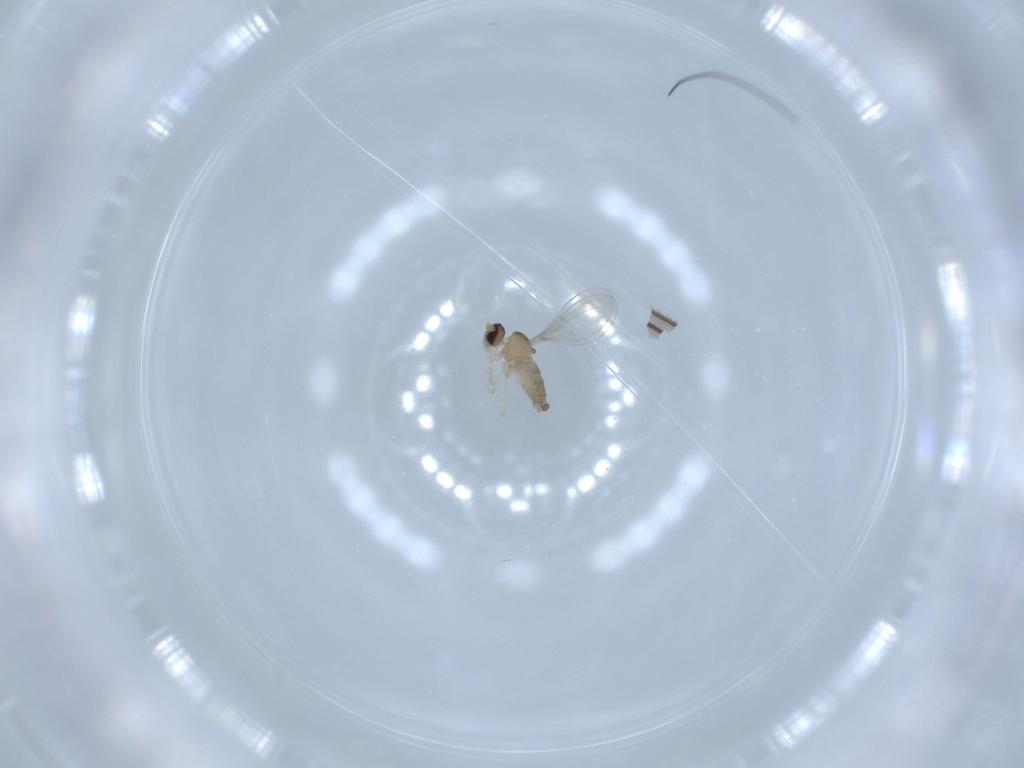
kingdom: Animalia
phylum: Arthropoda
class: Insecta
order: Diptera
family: Cecidomyiidae
